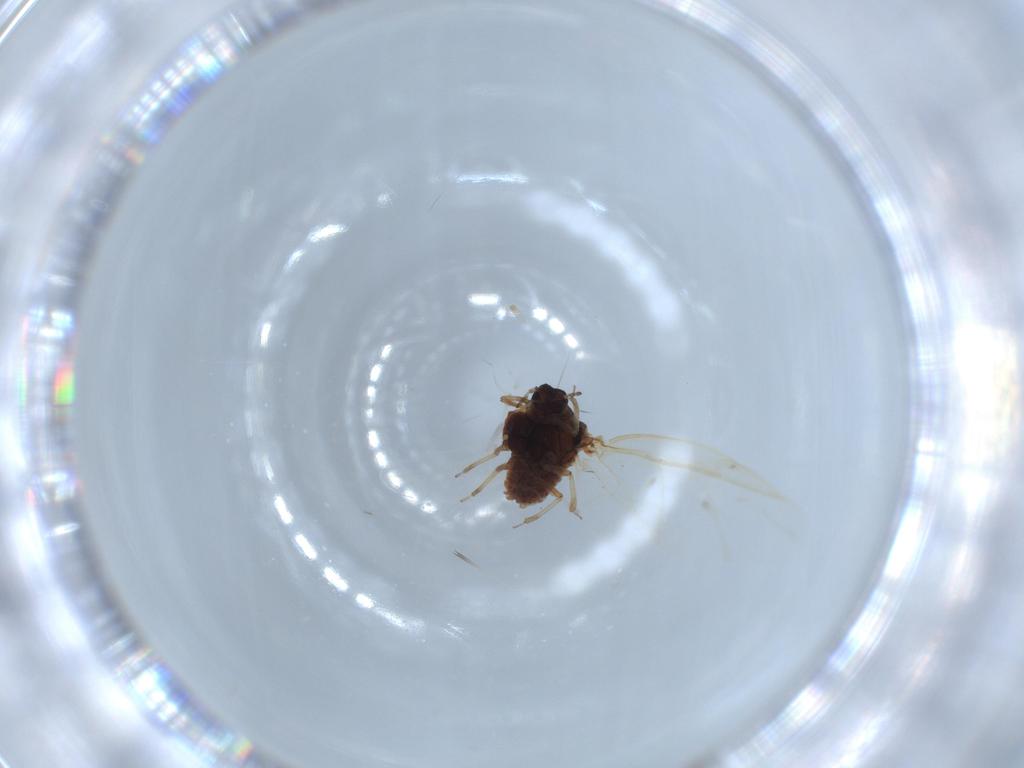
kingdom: Animalia
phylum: Arthropoda
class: Insecta
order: Hemiptera
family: Adelgidae
